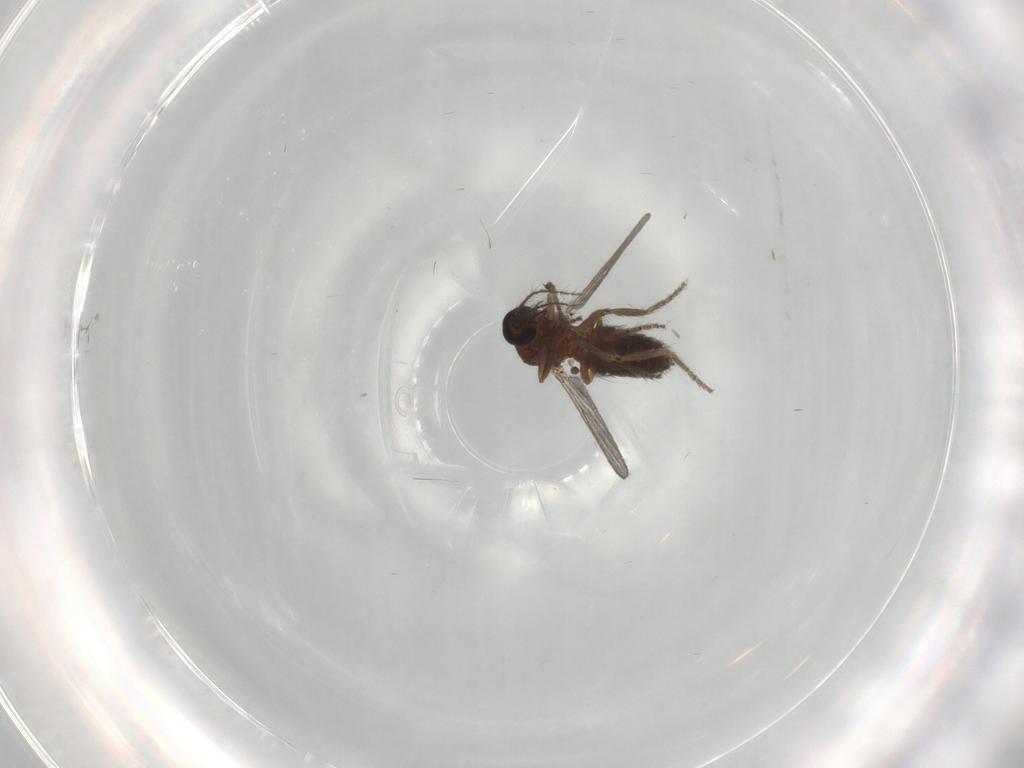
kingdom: Animalia
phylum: Arthropoda
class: Insecta
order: Diptera
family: Ceratopogonidae
